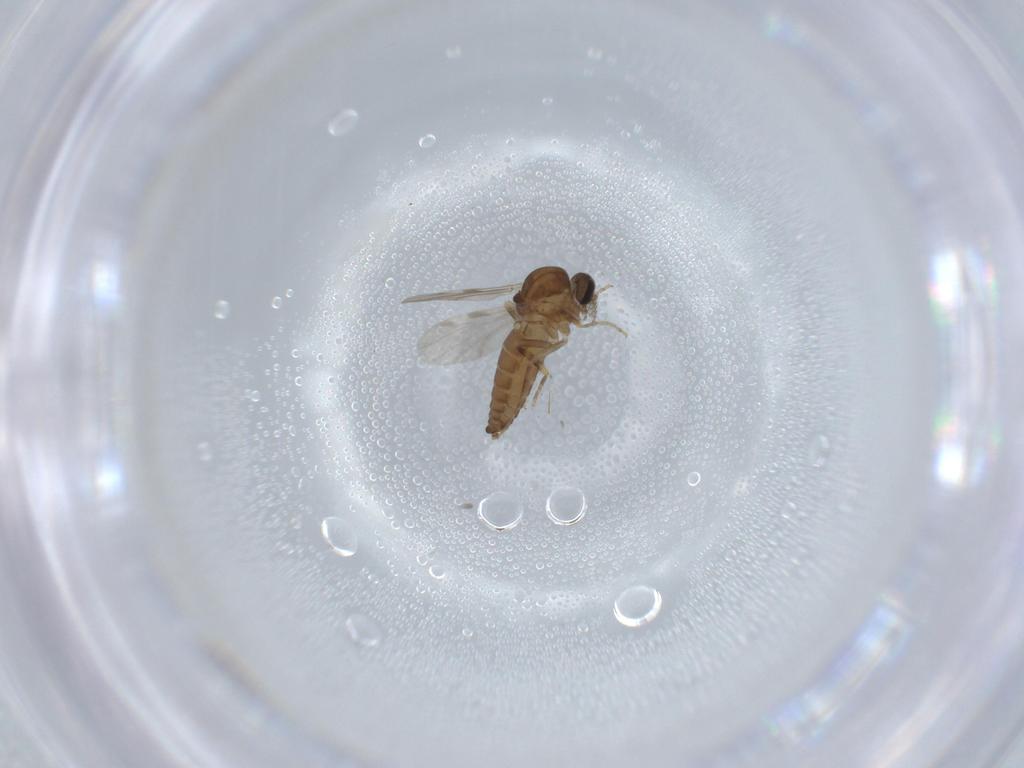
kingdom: Animalia
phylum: Arthropoda
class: Insecta
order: Diptera
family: Ceratopogonidae
